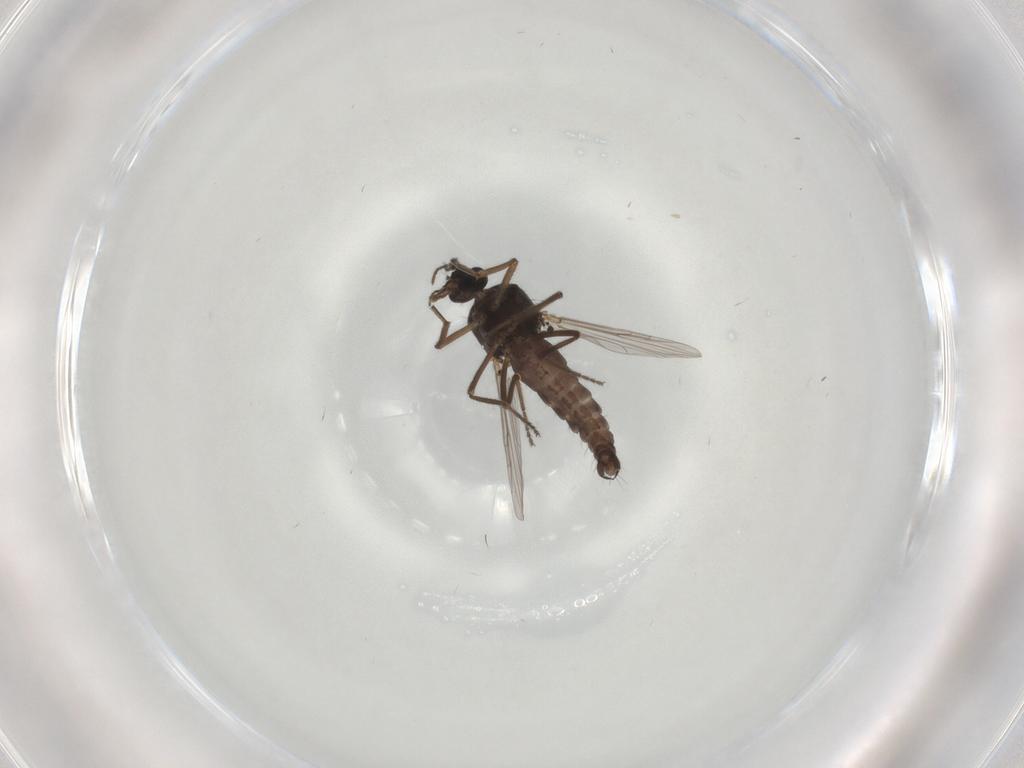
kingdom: Animalia
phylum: Arthropoda
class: Insecta
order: Diptera
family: Ceratopogonidae
